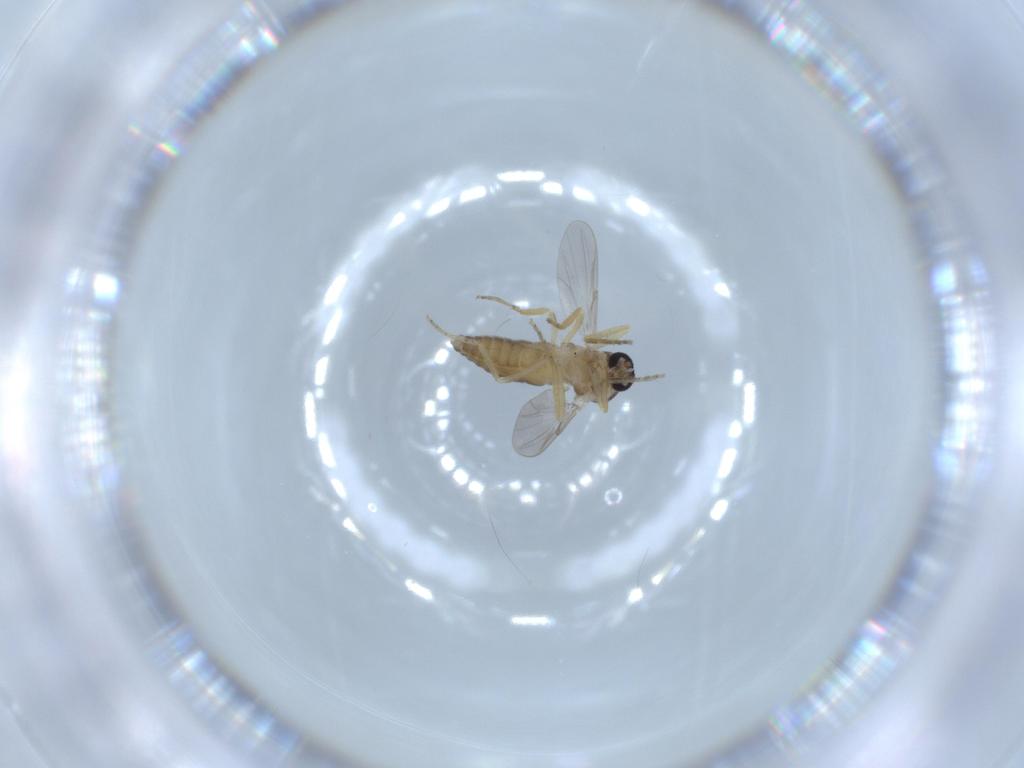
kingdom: Animalia
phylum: Arthropoda
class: Insecta
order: Diptera
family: Ceratopogonidae
